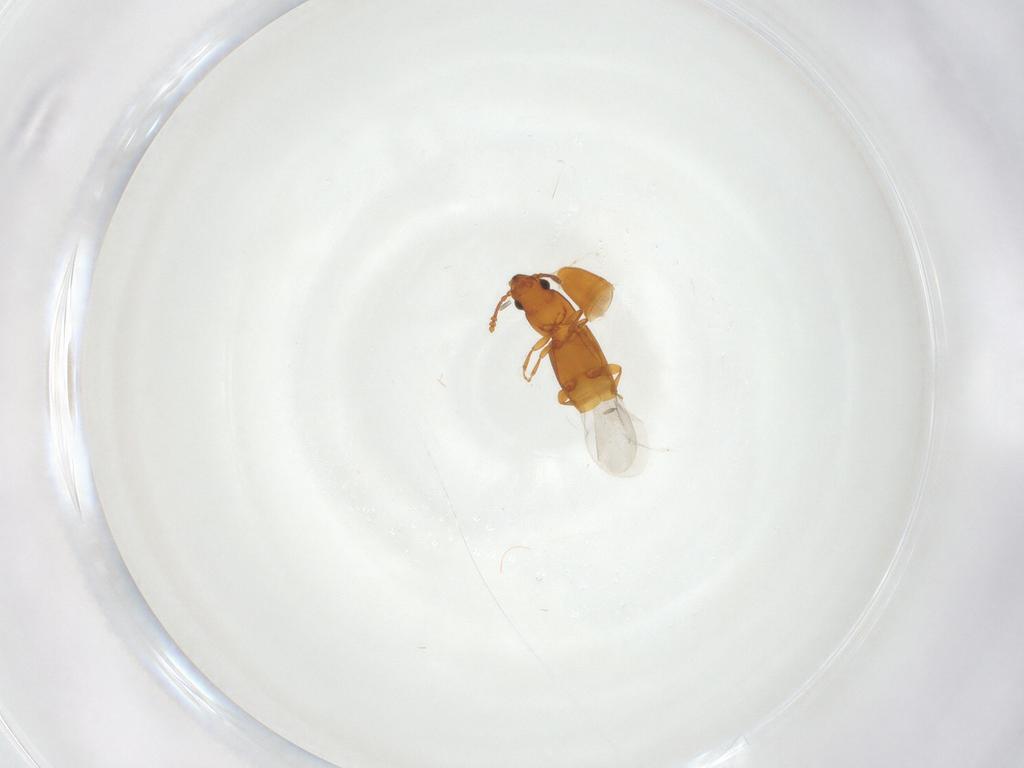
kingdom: Animalia
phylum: Arthropoda
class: Insecta
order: Coleoptera
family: Smicripidae
